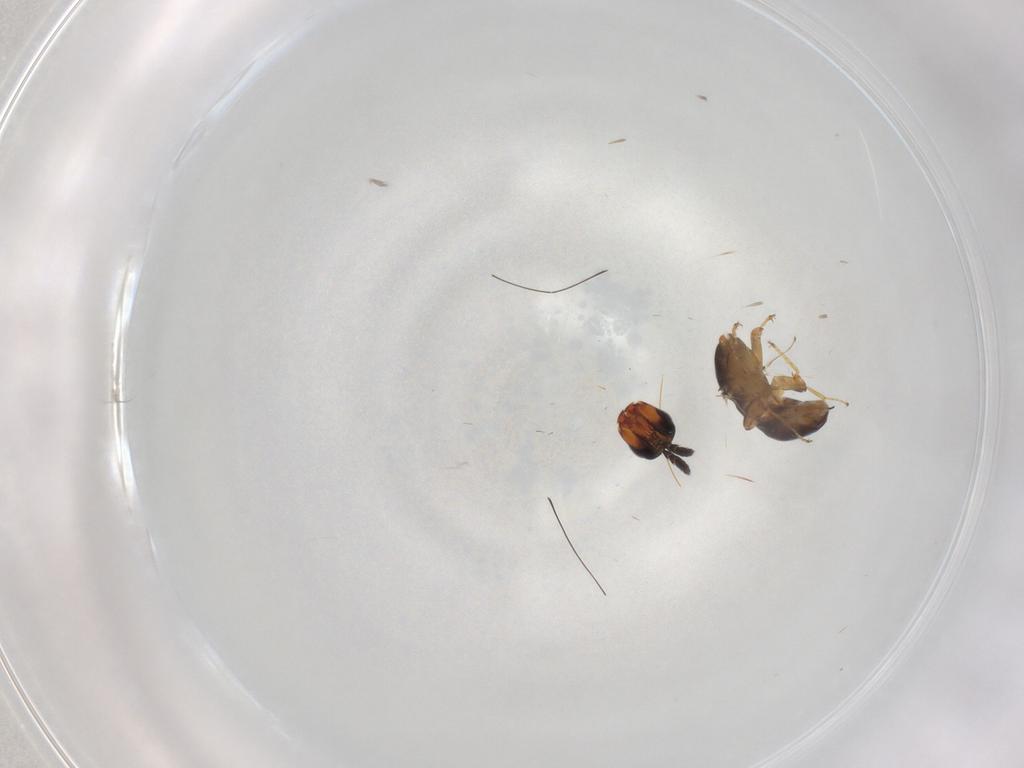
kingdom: Animalia
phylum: Arthropoda
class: Insecta
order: Hymenoptera
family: Agaonidae
